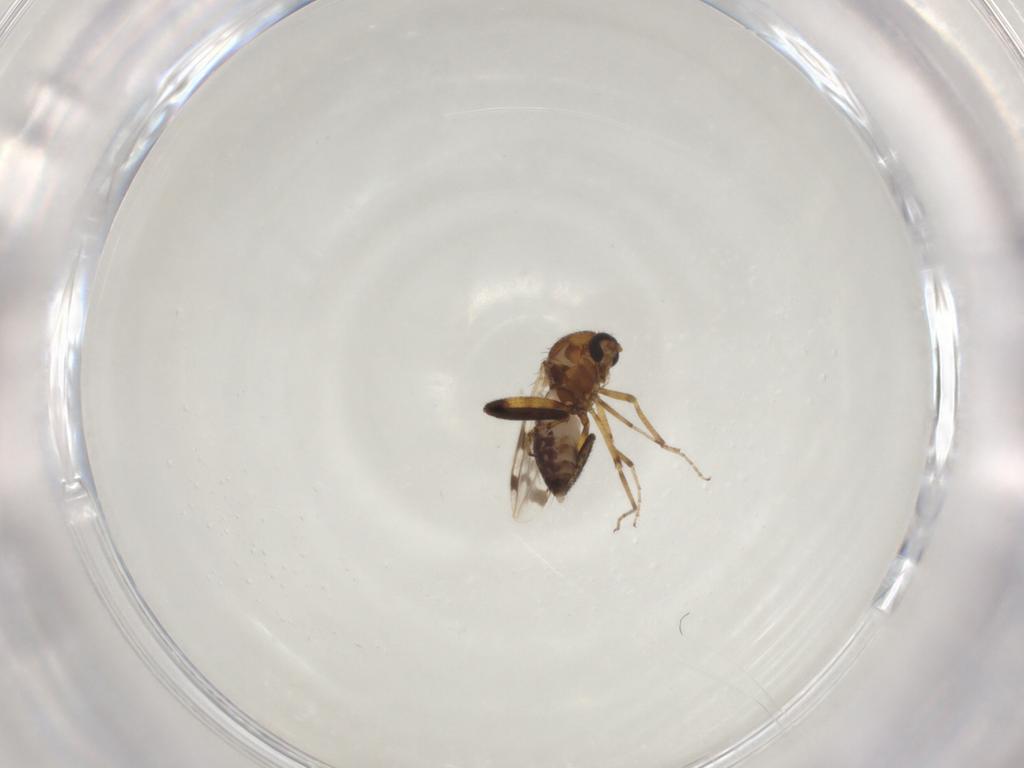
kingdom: Animalia
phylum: Arthropoda
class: Insecta
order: Diptera
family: Ceratopogonidae
